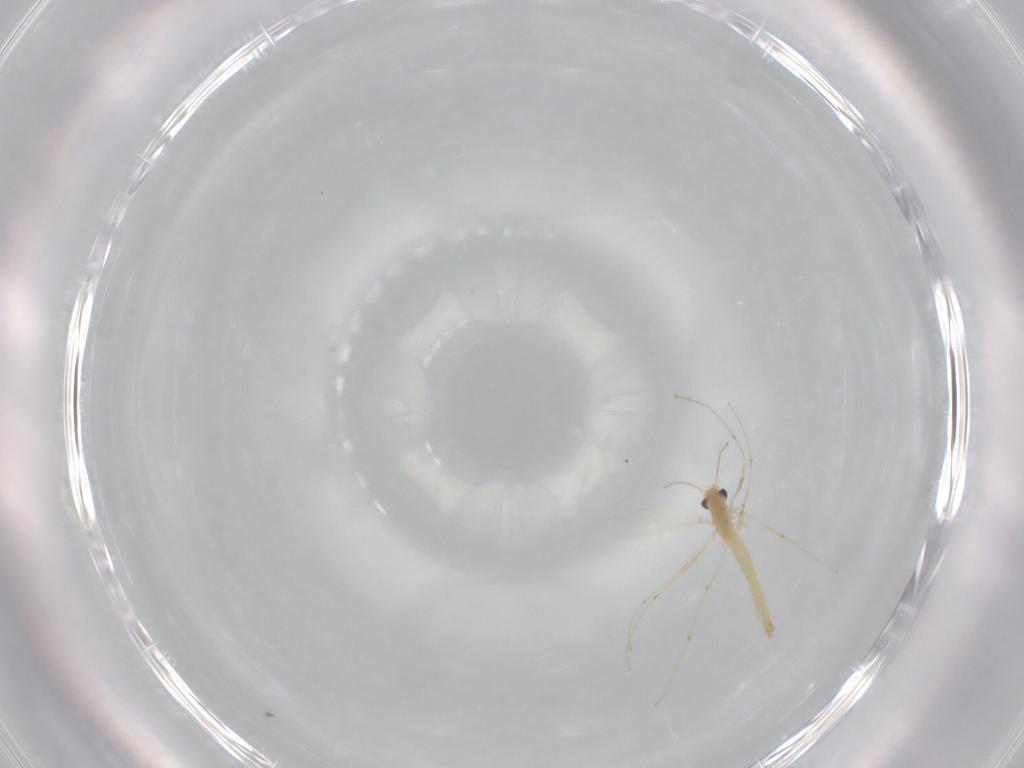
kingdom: Animalia
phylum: Arthropoda
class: Insecta
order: Diptera
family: Chironomidae
